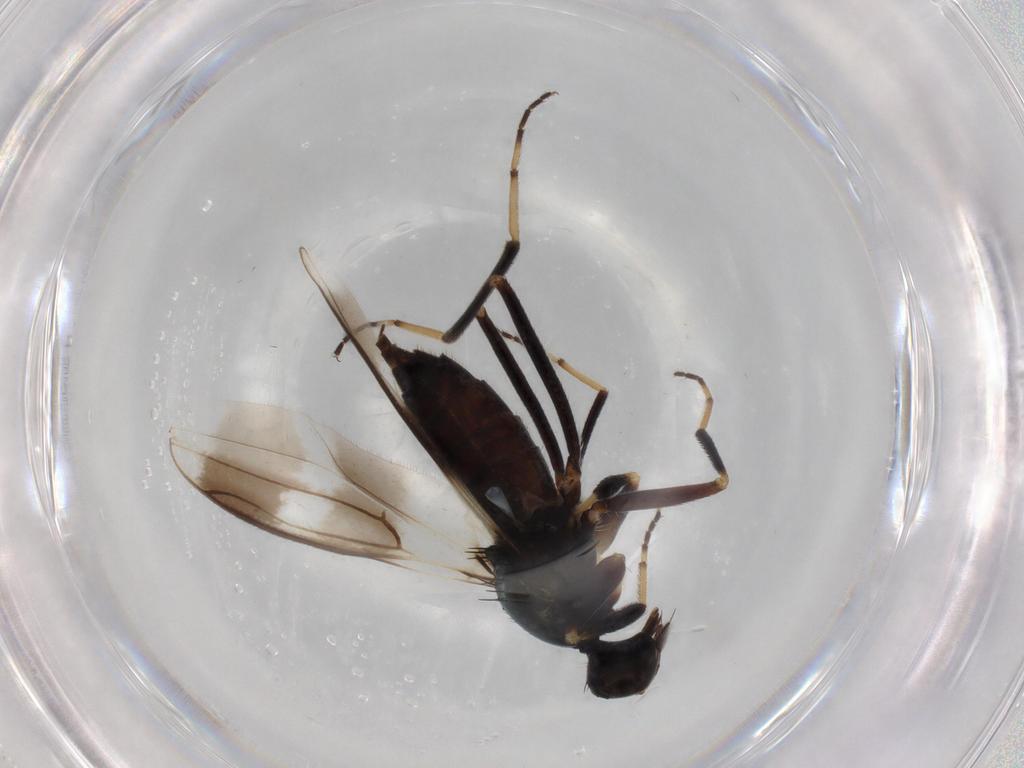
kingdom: Animalia
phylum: Arthropoda
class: Insecta
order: Diptera
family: Hybotidae
